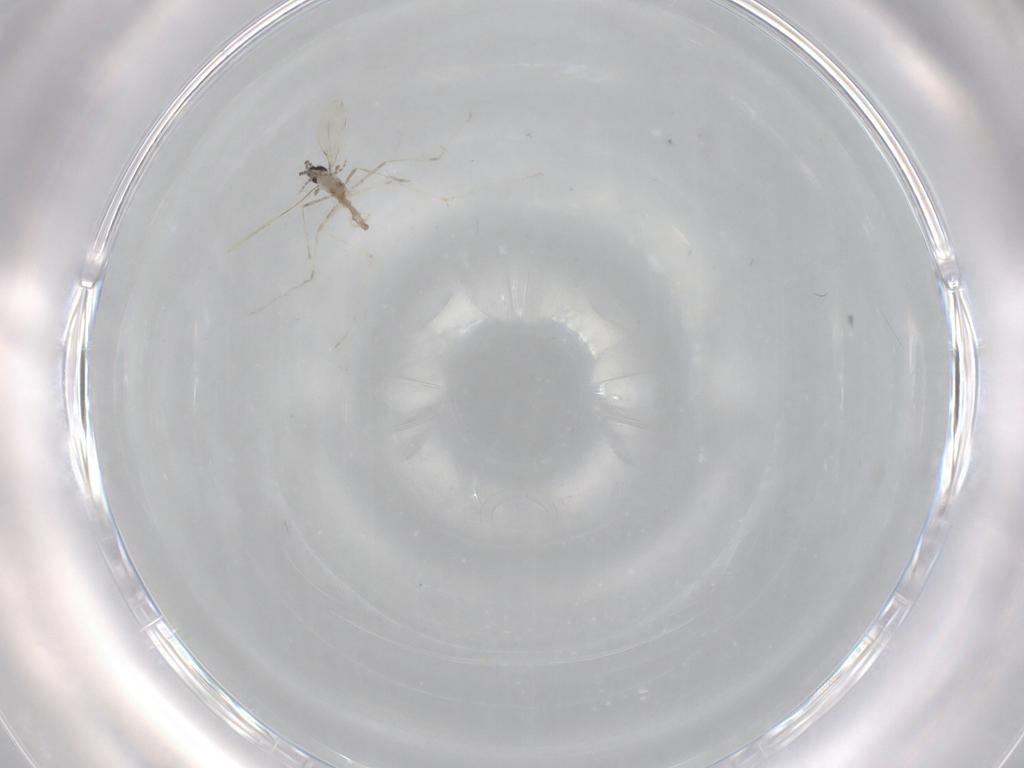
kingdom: Animalia
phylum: Arthropoda
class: Insecta
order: Diptera
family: Cecidomyiidae
